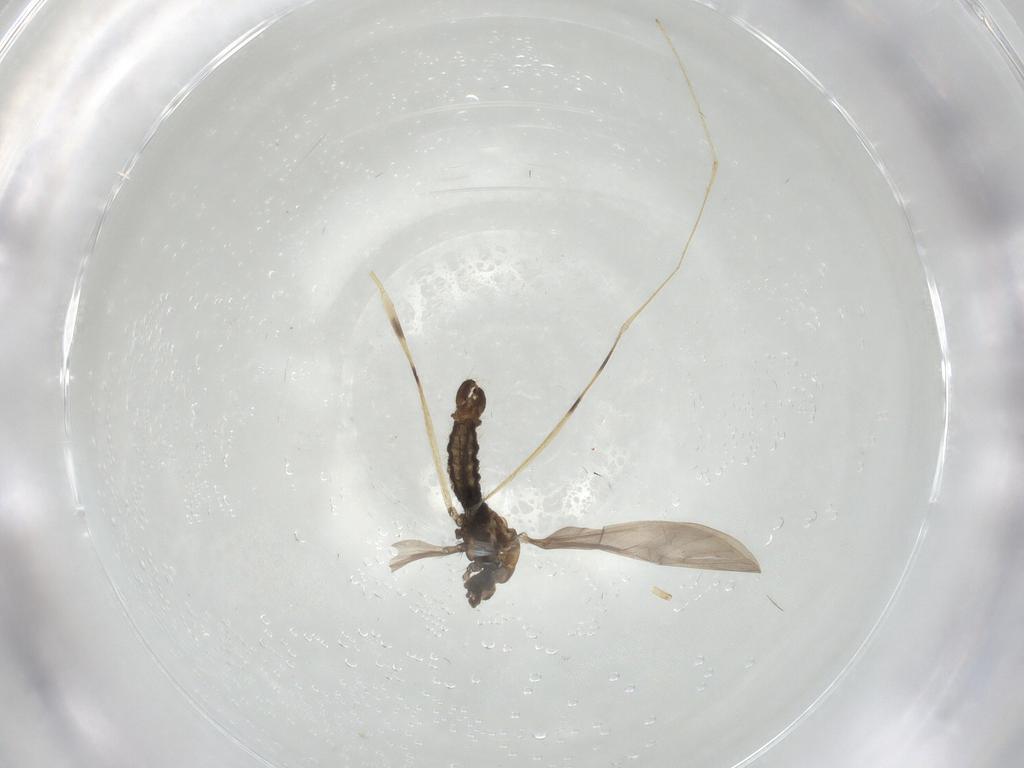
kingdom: Animalia
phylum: Arthropoda
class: Insecta
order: Diptera
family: Limoniidae
